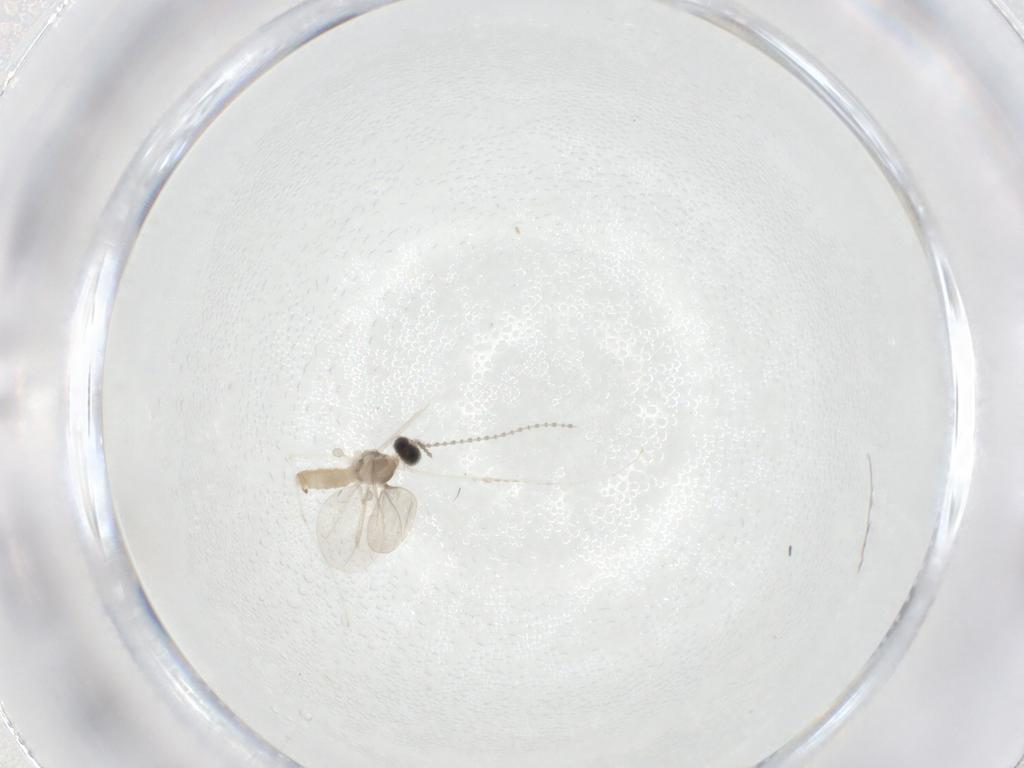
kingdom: Animalia
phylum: Arthropoda
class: Insecta
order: Diptera
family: Cecidomyiidae
